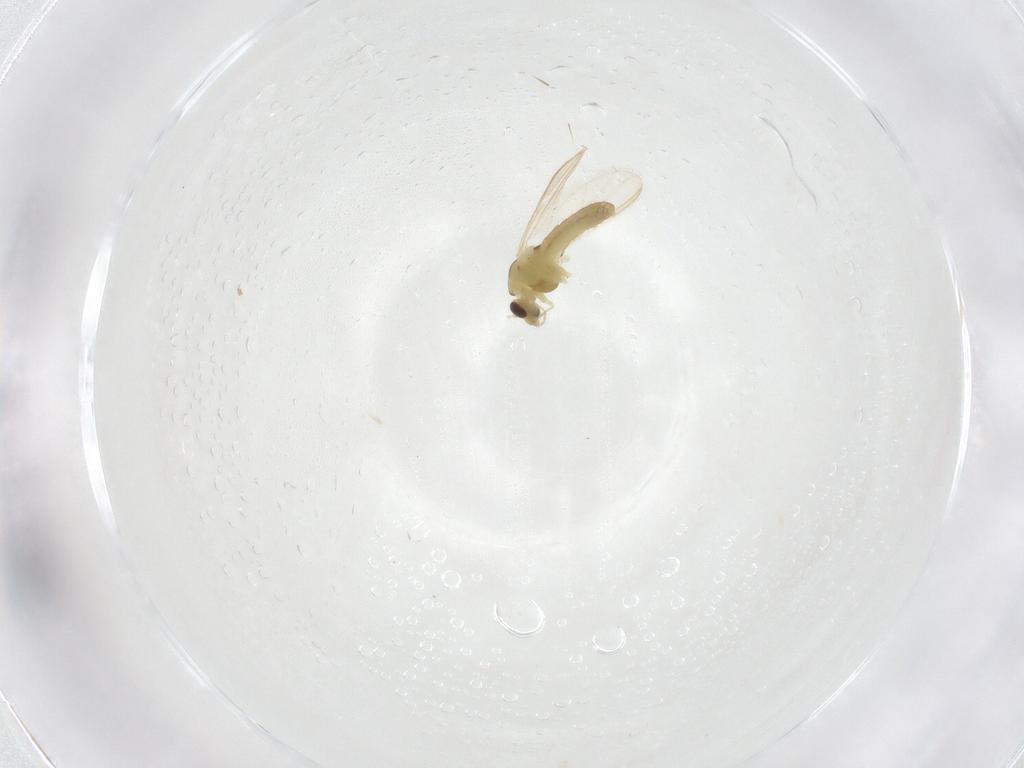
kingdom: Animalia
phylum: Arthropoda
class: Insecta
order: Diptera
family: Chironomidae
